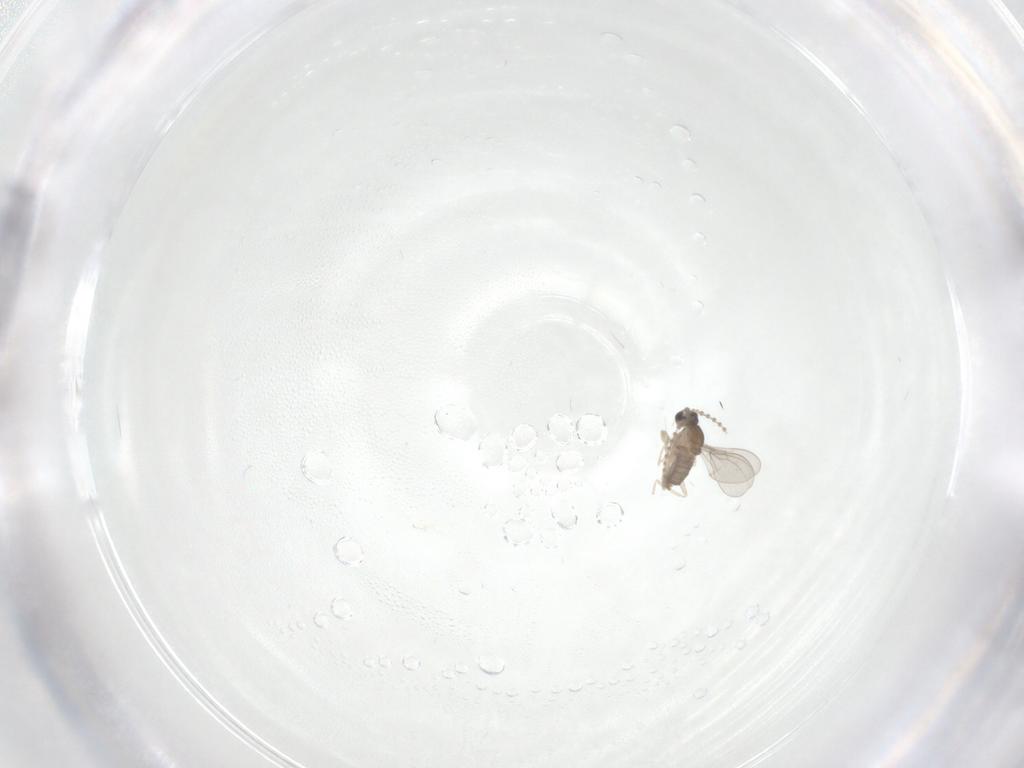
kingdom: Animalia
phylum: Arthropoda
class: Insecta
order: Diptera
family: Cecidomyiidae
